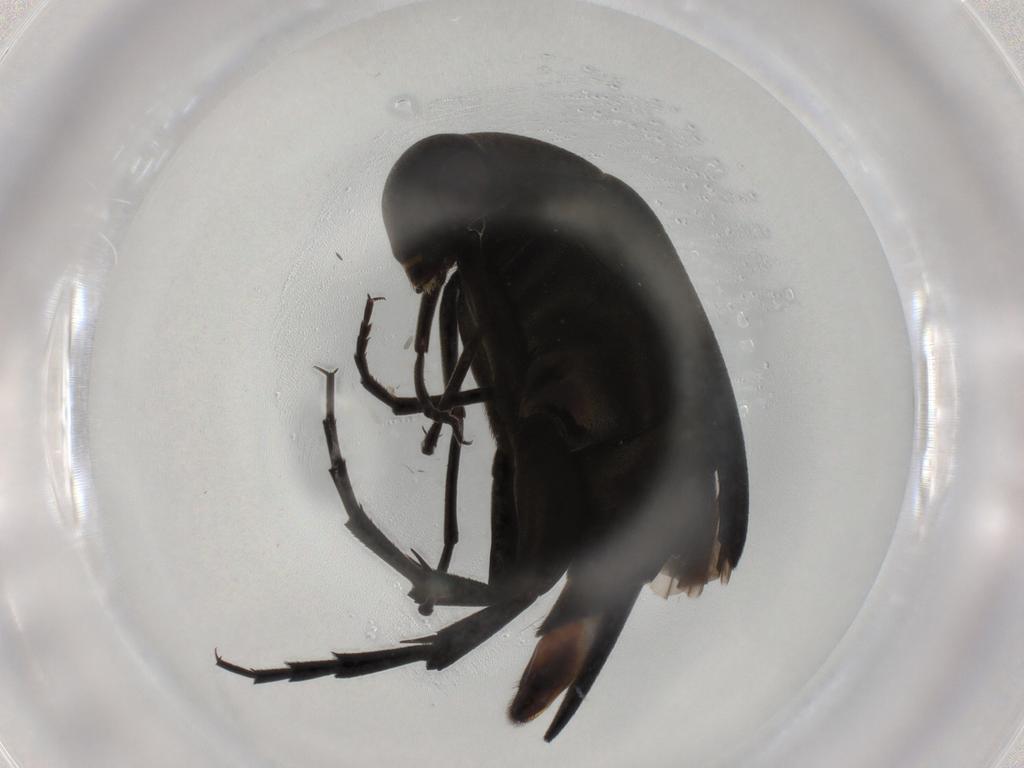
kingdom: Animalia
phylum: Arthropoda
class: Insecta
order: Coleoptera
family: Mordellidae
